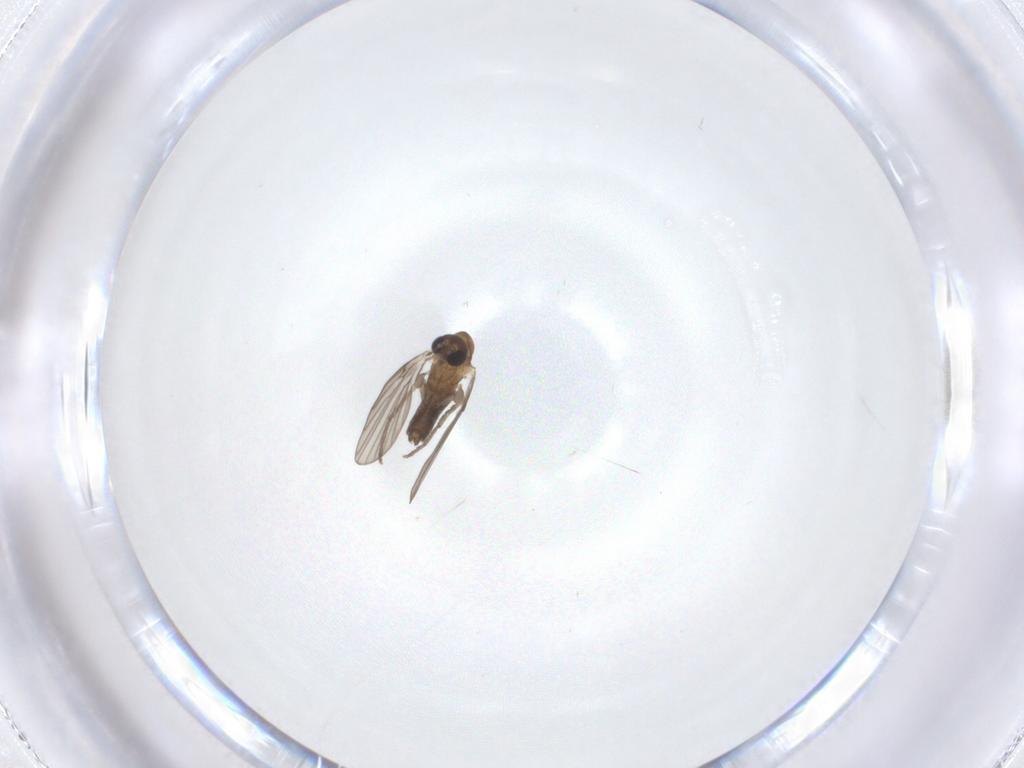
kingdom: Animalia
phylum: Arthropoda
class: Insecta
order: Diptera
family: Psychodidae
